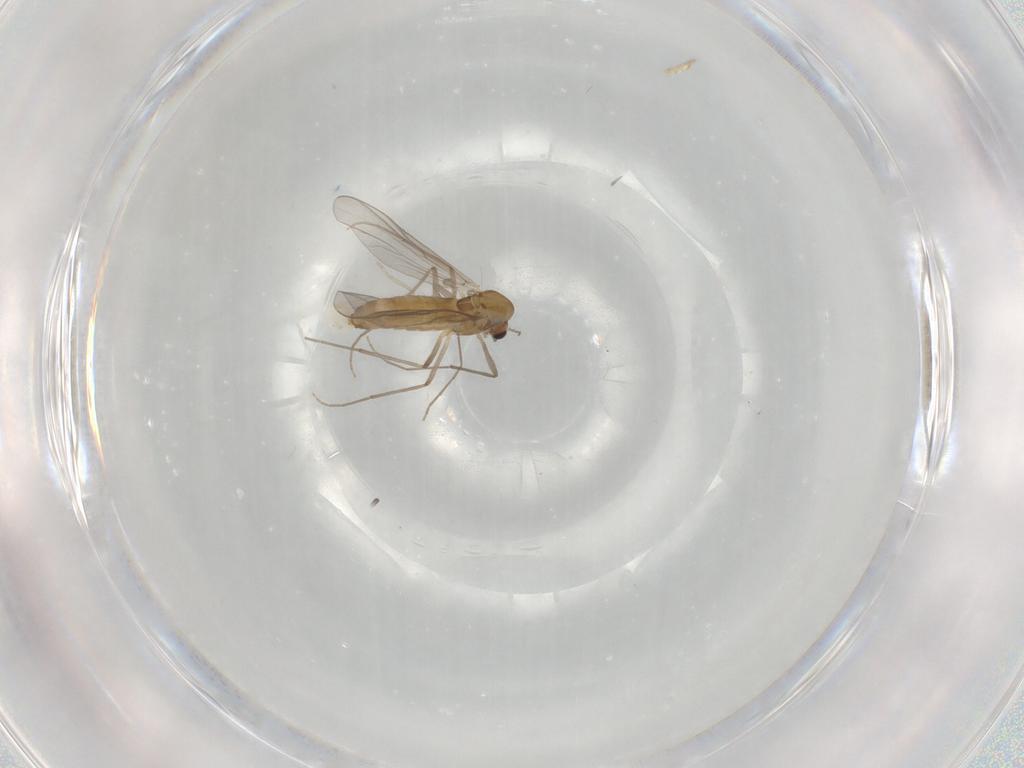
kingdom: Animalia
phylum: Arthropoda
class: Insecta
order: Diptera
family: Chironomidae
